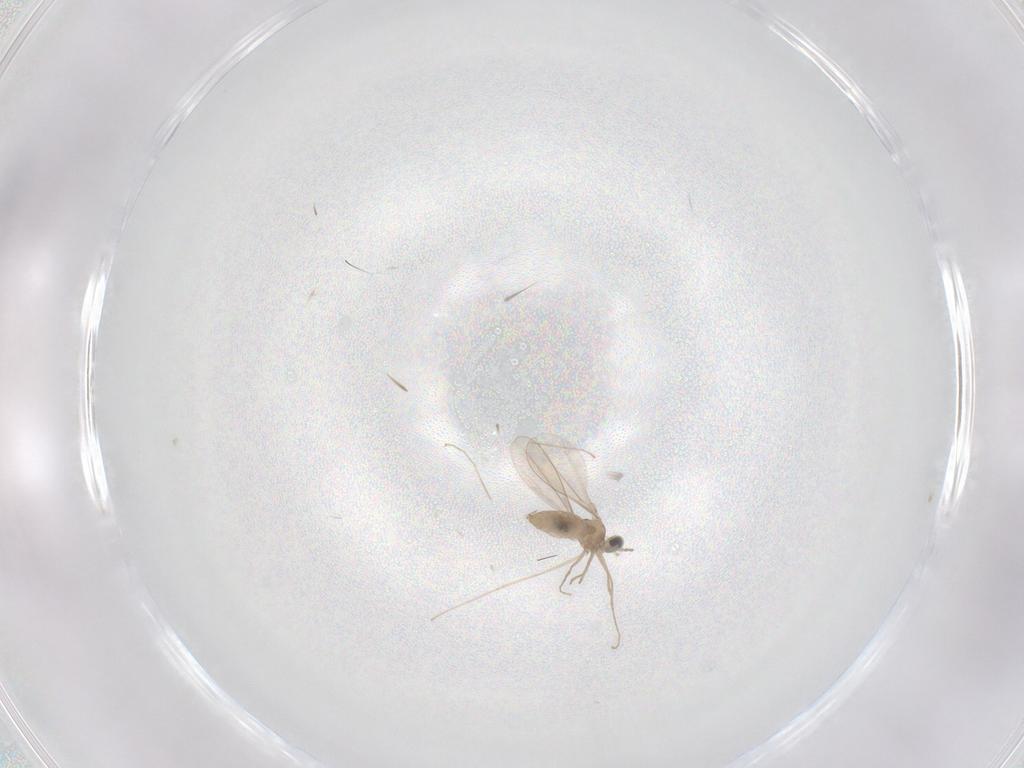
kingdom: Animalia
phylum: Arthropoda
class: Insecta
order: Diptera
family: Cecidomyiidae
